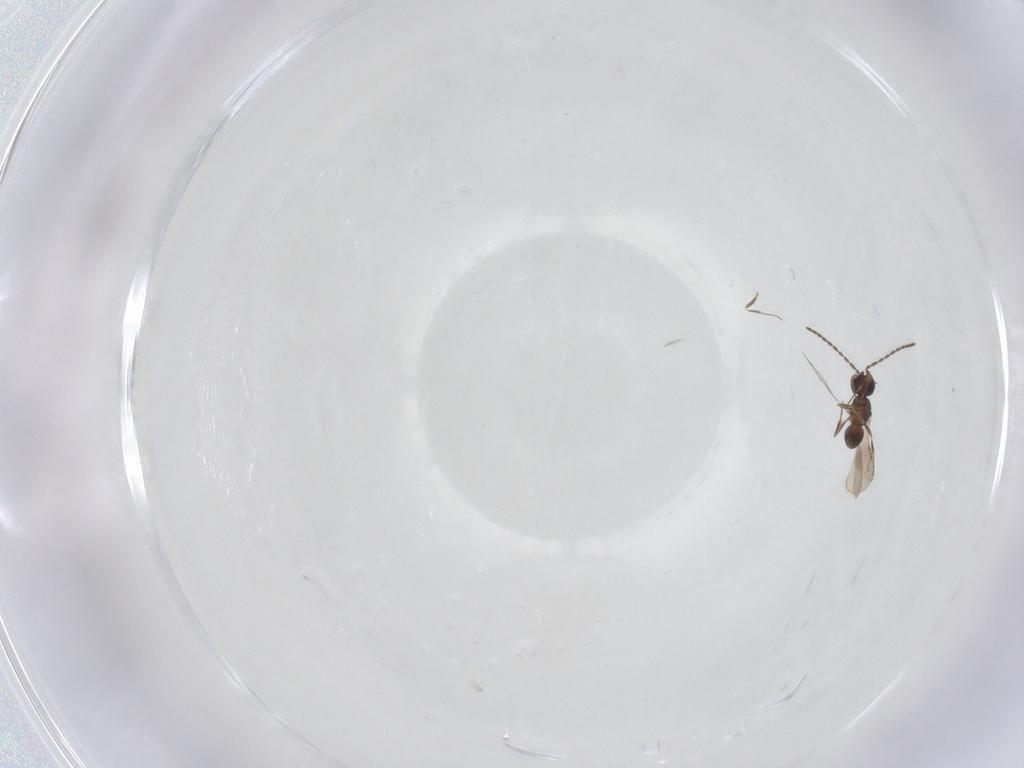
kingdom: Animalia
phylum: Arthropoda
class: Insecta
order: Hymenoptera
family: Ceraphronidae
